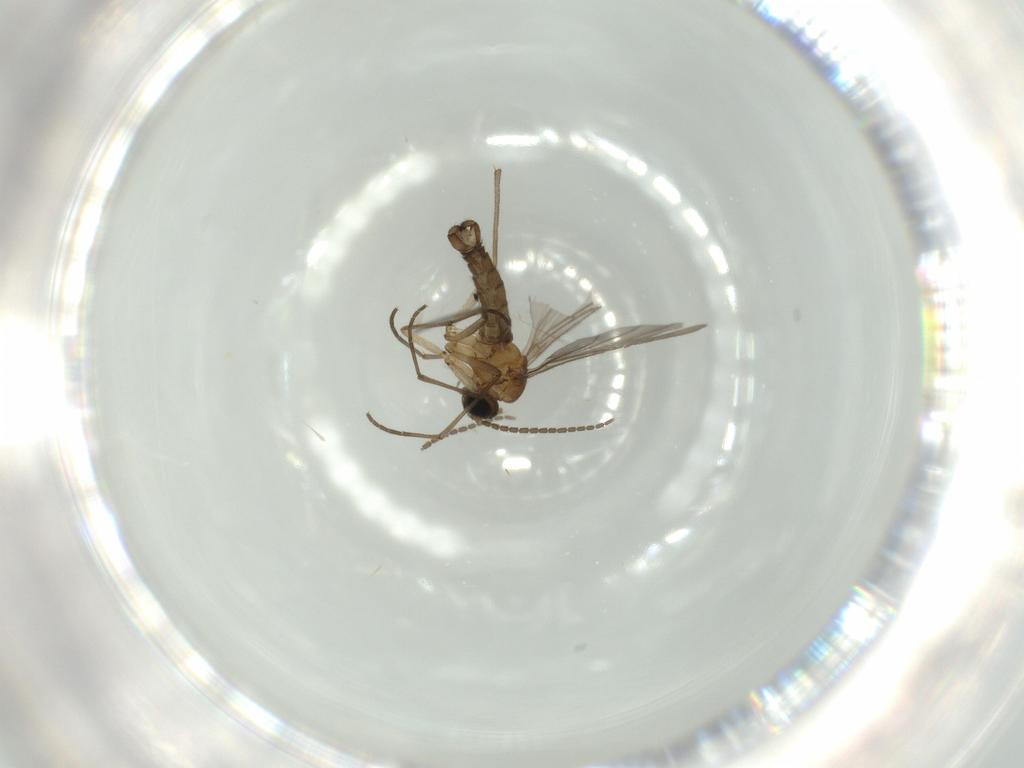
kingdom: Animalia
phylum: Arthropoda
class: Insecta
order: Diptera
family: Sciaridae
